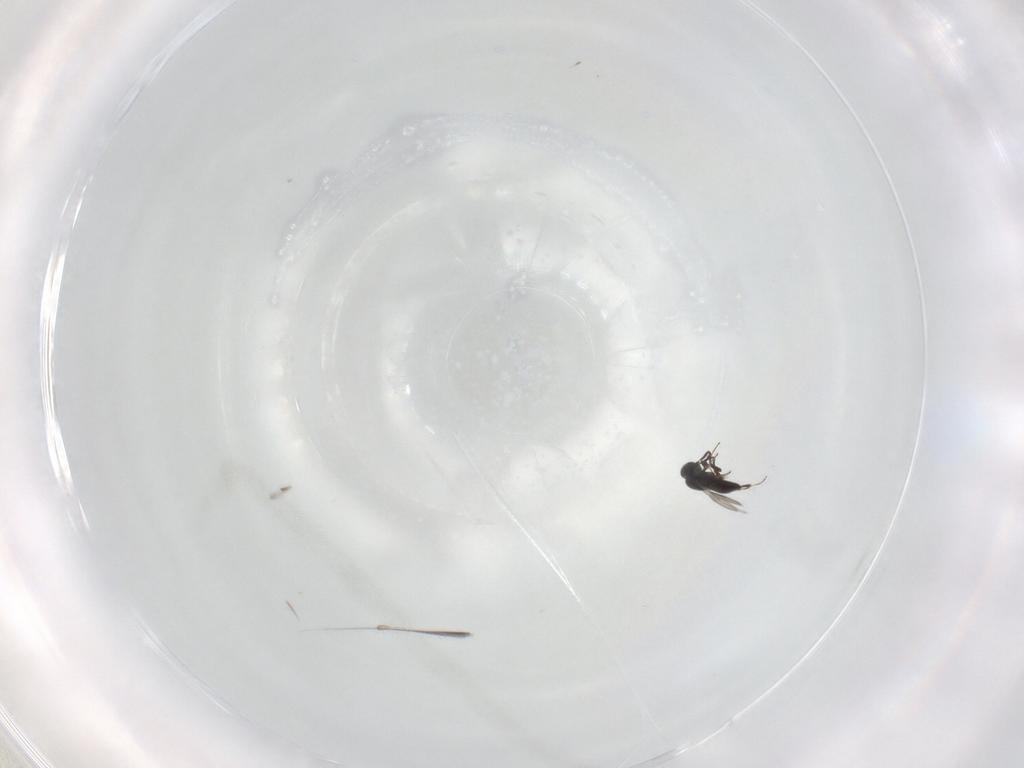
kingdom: Animalia
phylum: Arthropoda
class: Insecta
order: Hymenoptera
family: Scelionidae
